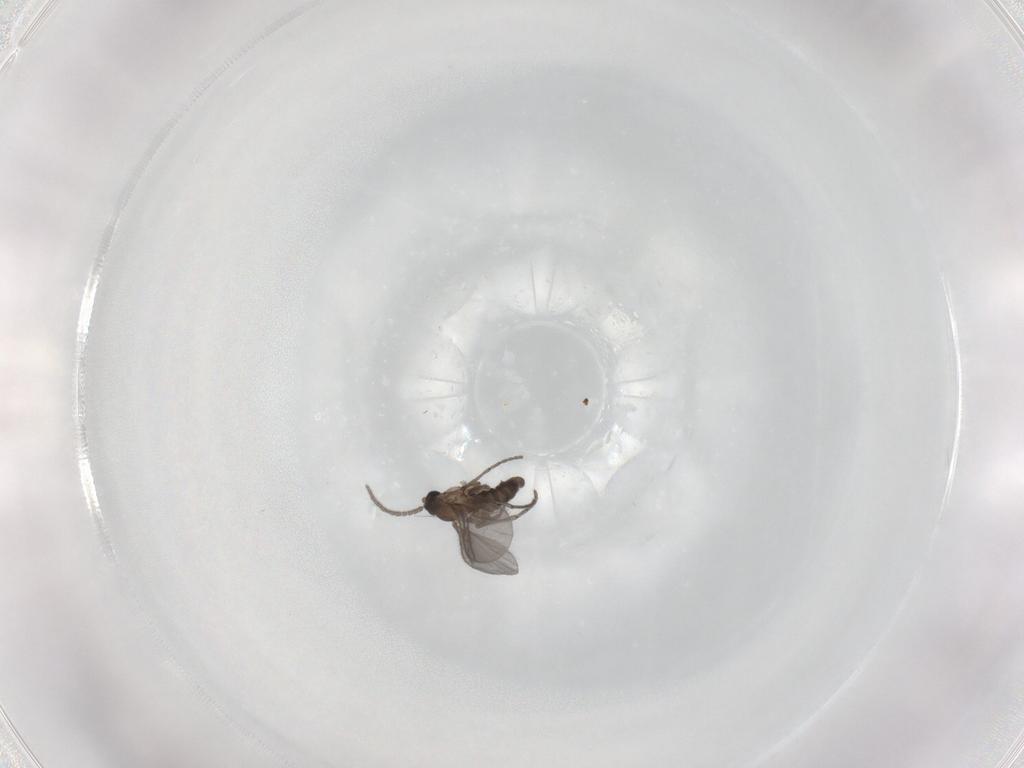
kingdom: Animalia
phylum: Arthropoda
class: Insecta
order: Diptera
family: Sciaridae
